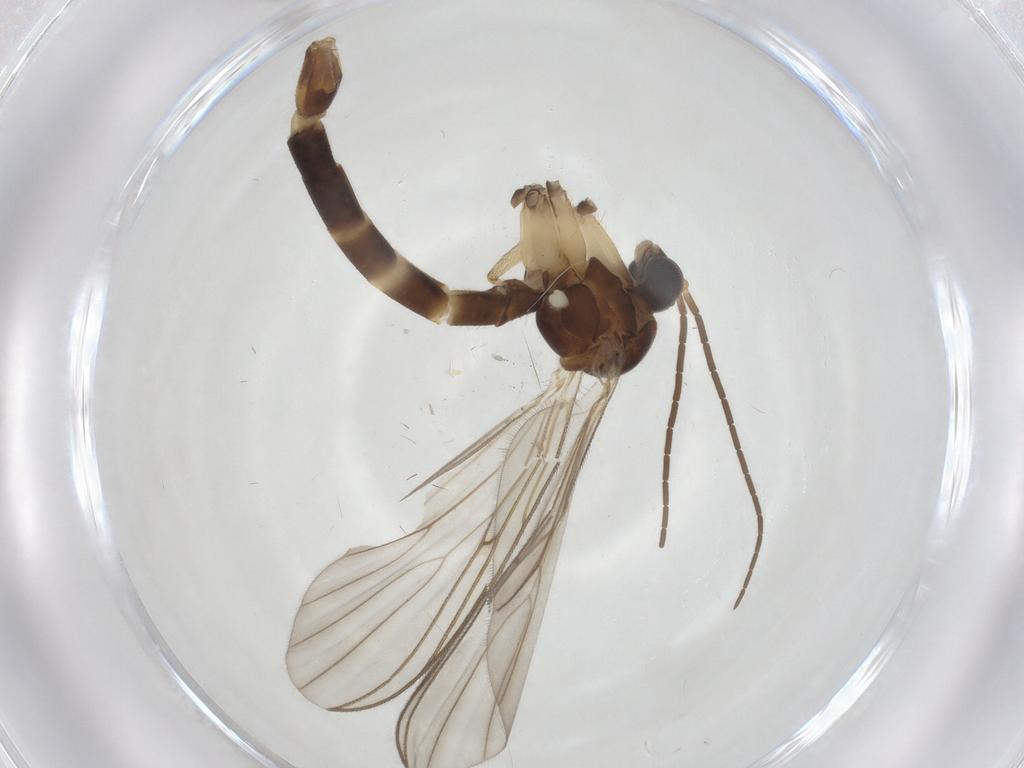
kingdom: Animalia
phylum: Arthropoda
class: Insecta
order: Diptera
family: Mycetophilidae
